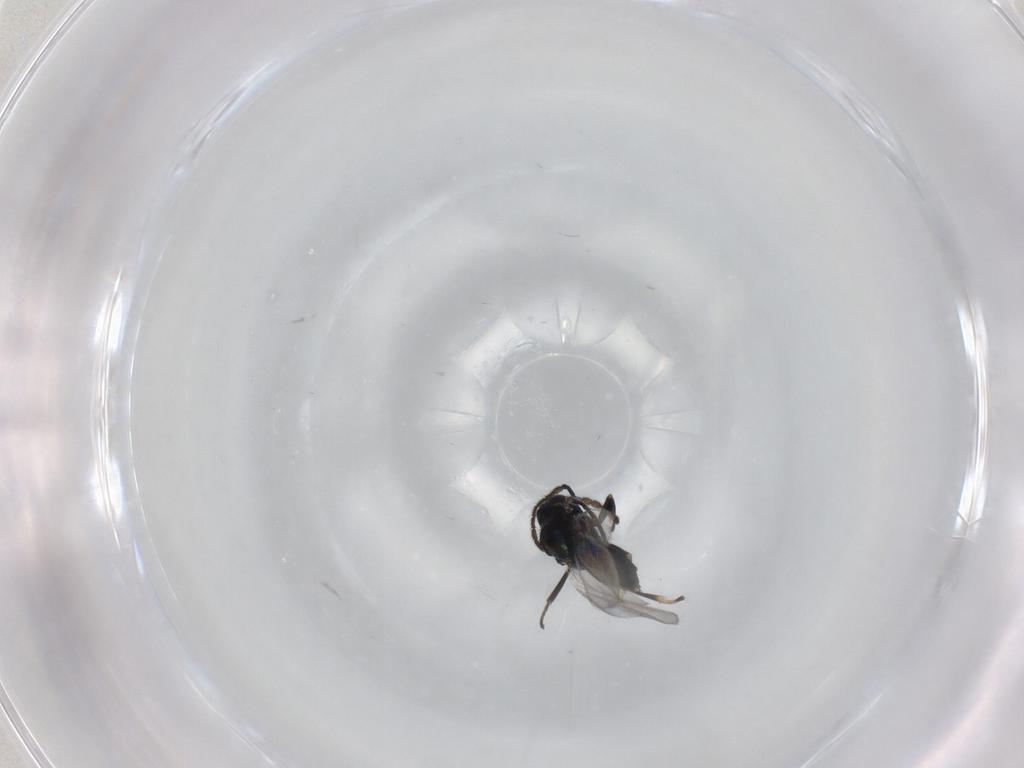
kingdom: Animalia
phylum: Arthropoda
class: Insecta
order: Hymenoptera
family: Encyrtidae
